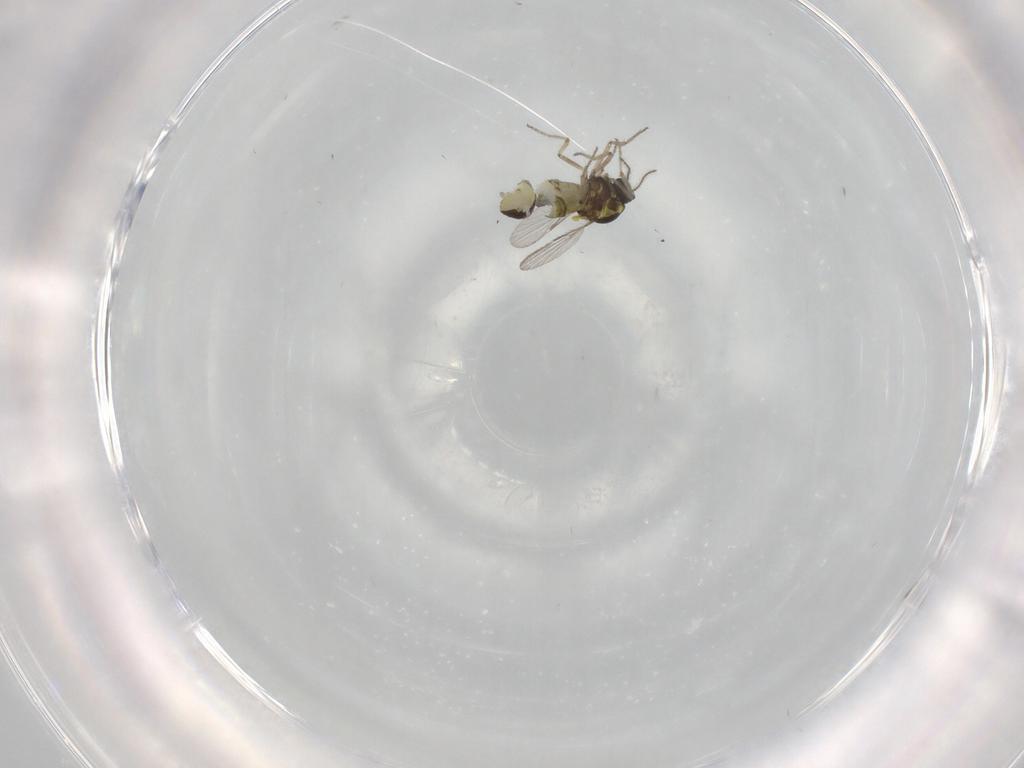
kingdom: Animalia
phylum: Arthropoda
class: Insecta
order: Diptera
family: Ceratopogonidae
